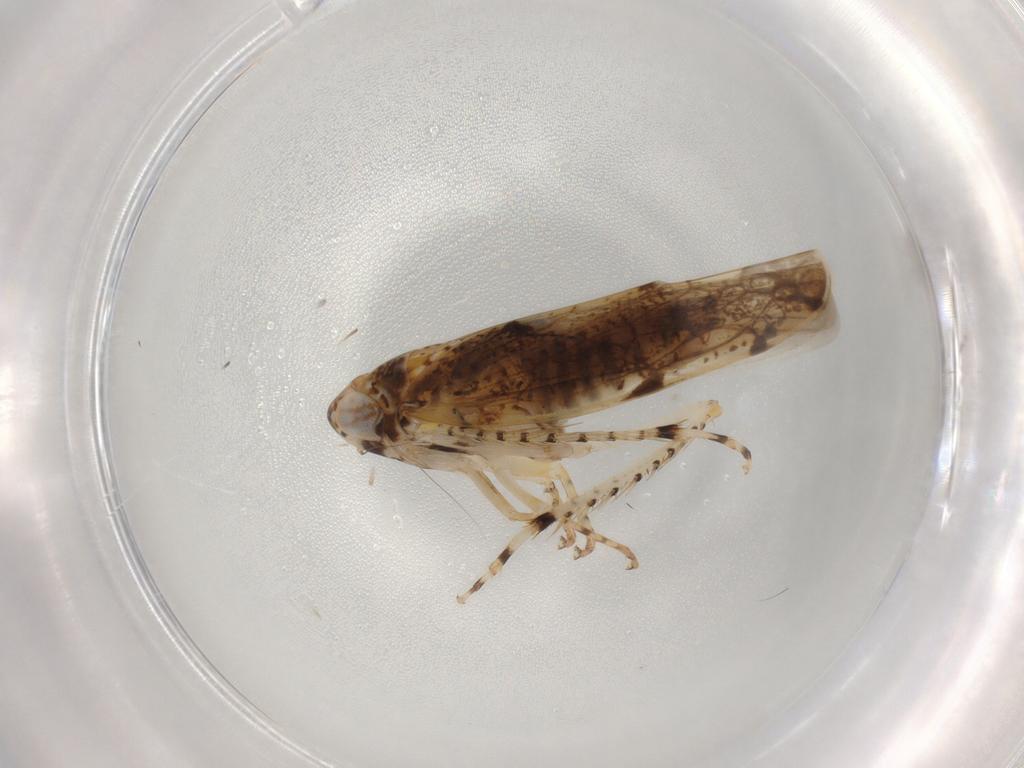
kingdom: Animalia
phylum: Arthropoda
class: Insecta
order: Hemiptera
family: Cicadellidae
